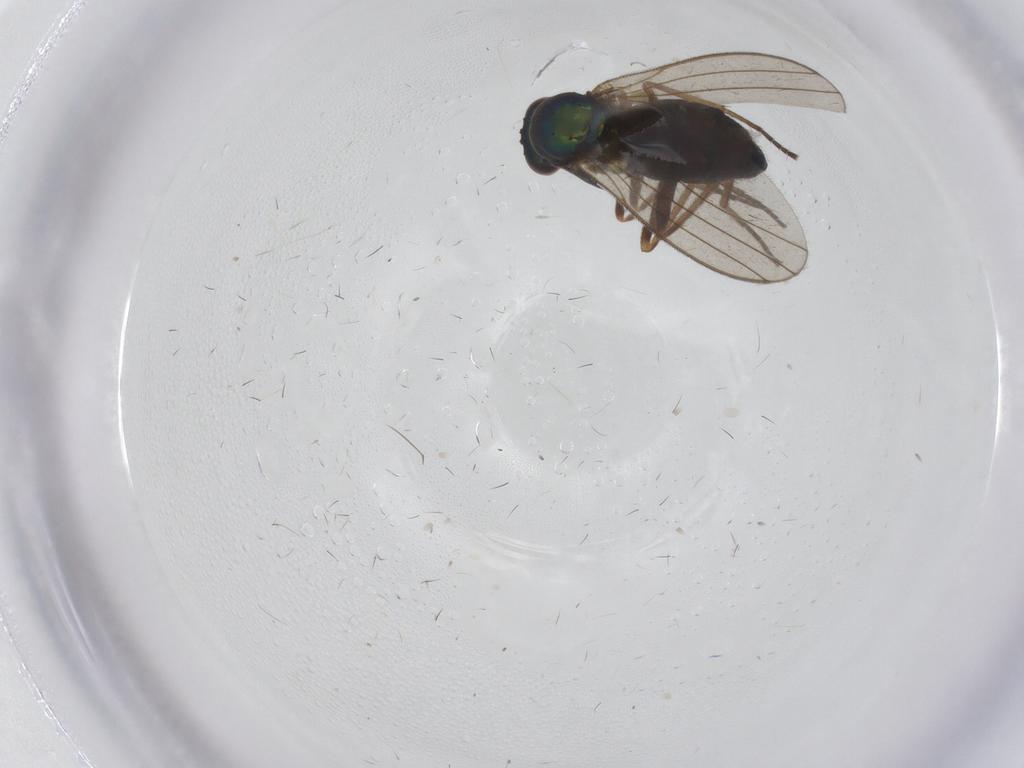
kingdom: Animalia
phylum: Arthropoda
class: Insecta
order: Diptera
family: Dolichopodidae
